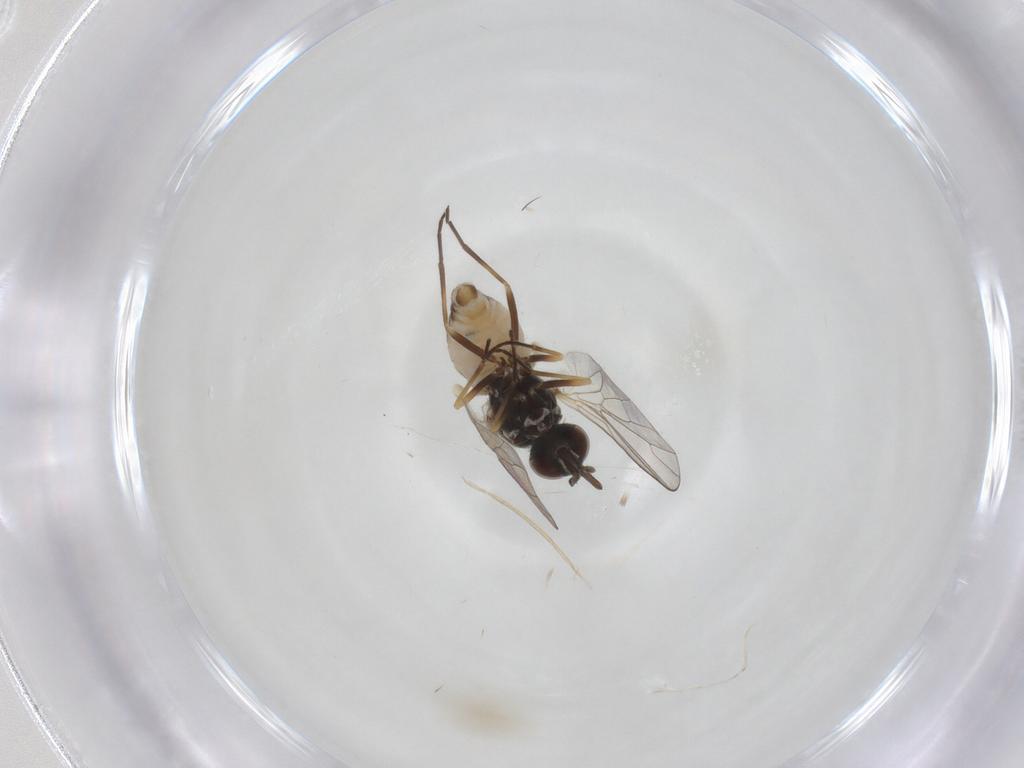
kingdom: Animalia
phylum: Arthropoda
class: Insecta
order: Diptera
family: Bombyliidae
